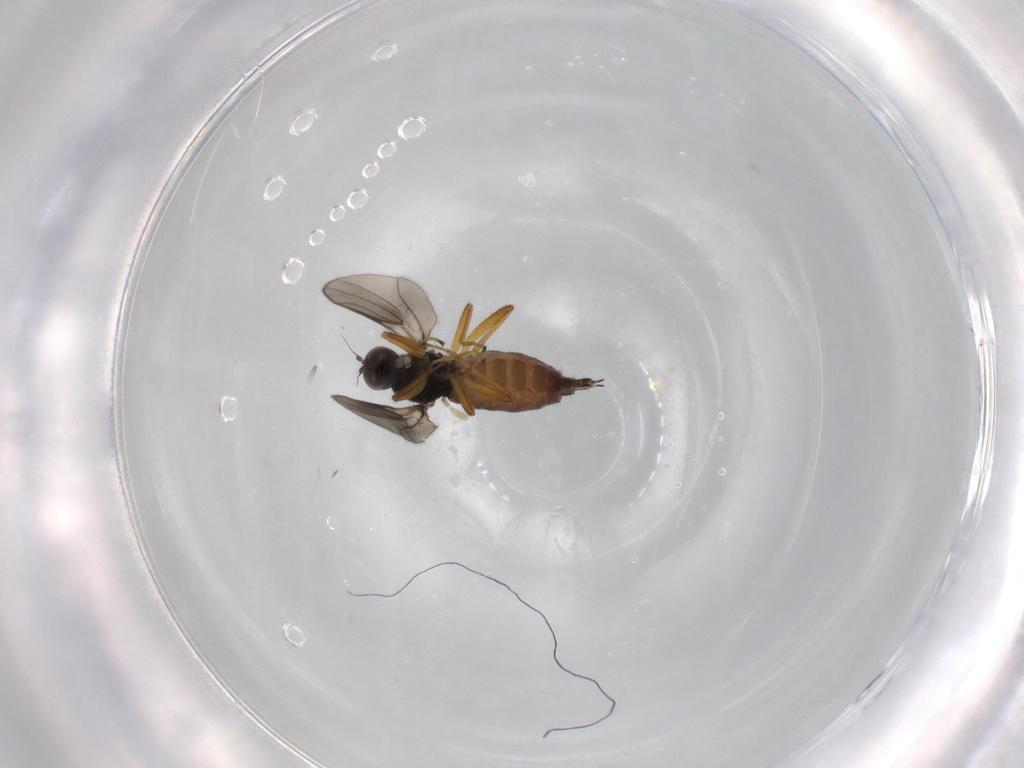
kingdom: Animalia
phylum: Arthropoda
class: Insecta
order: Diptera
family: Hybotidae
